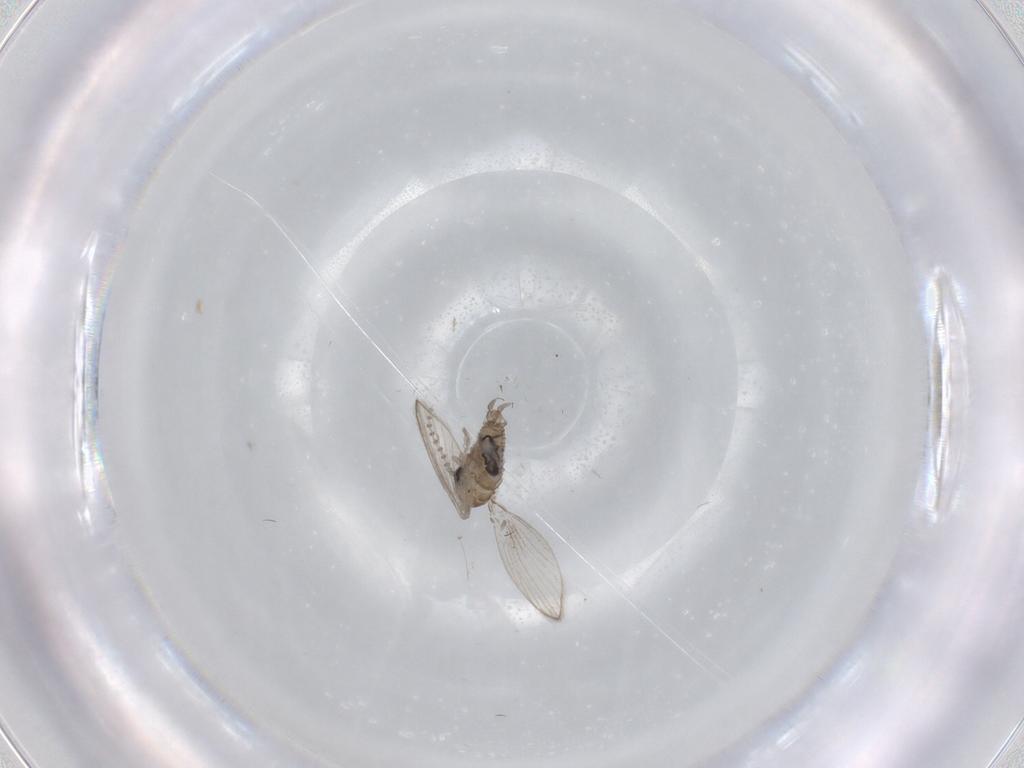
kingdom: Animalia
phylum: Arthropoda
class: Insecta
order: Diptera
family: Psychodidae
